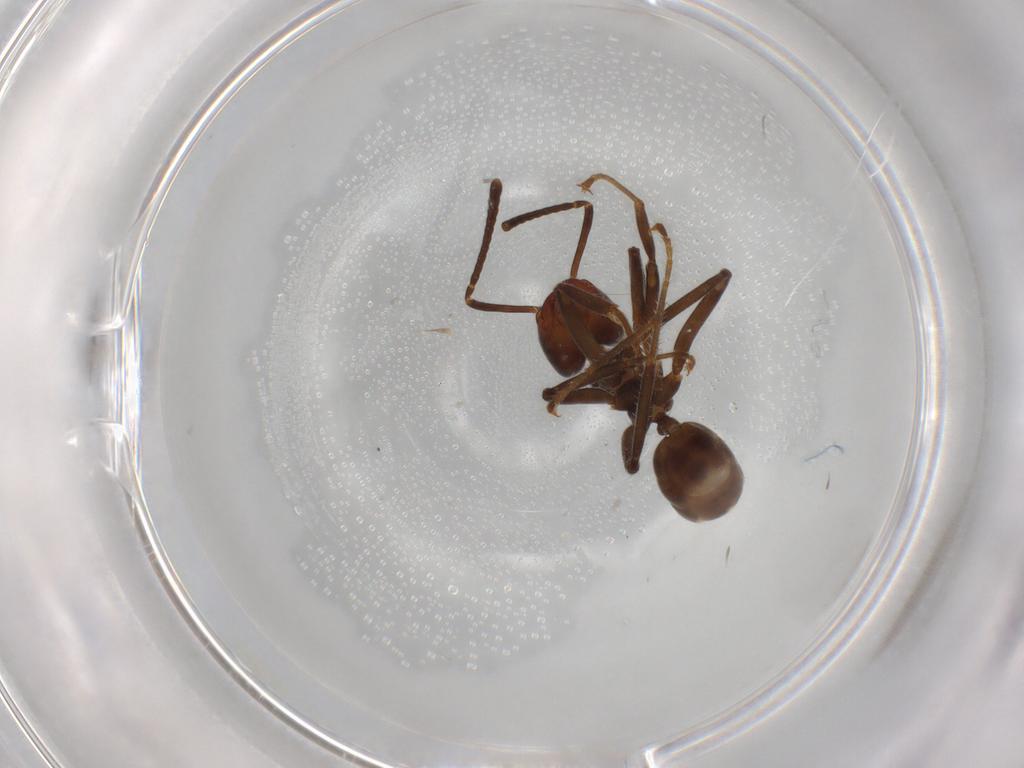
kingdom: Animalia
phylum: Arthropoda
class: Insecta
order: Hymenoptera
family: Formicidae
